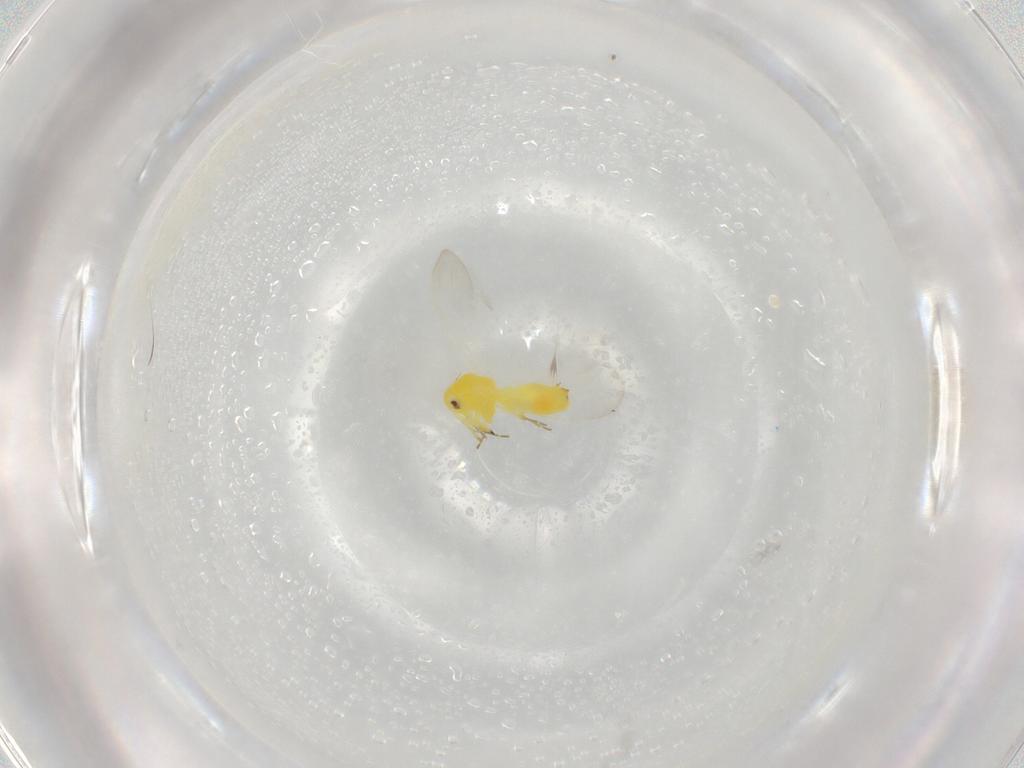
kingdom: Animalia
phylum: Arthropoda
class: Insecta
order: Hemiptera
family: Aleyrodidae
